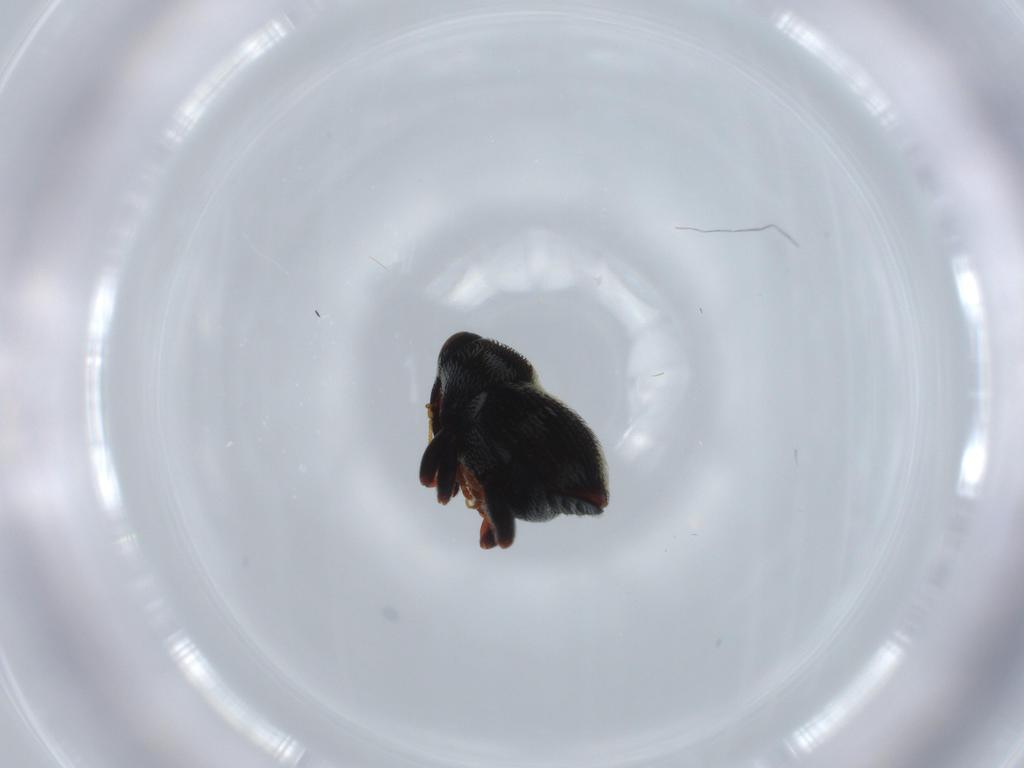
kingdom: Animalia
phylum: Arthropoda
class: Insecta
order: Coleoptera
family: Curculionidae
